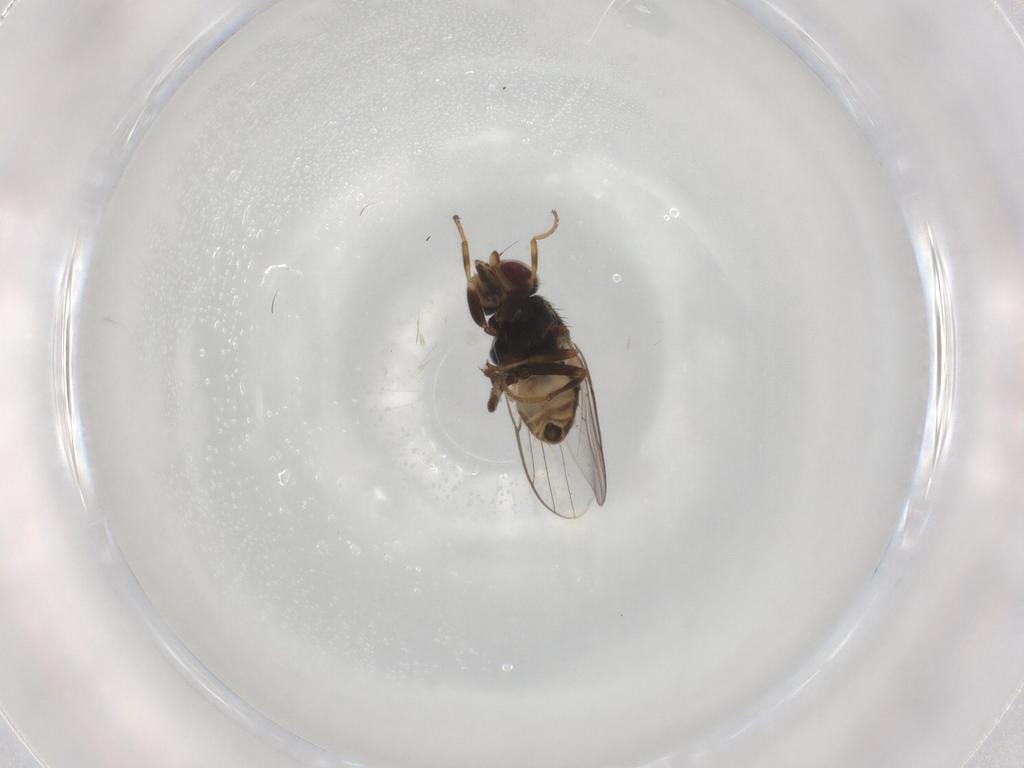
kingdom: Animalia
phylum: Arthropoda
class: Insecta
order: Diptera
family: Chloropidae
